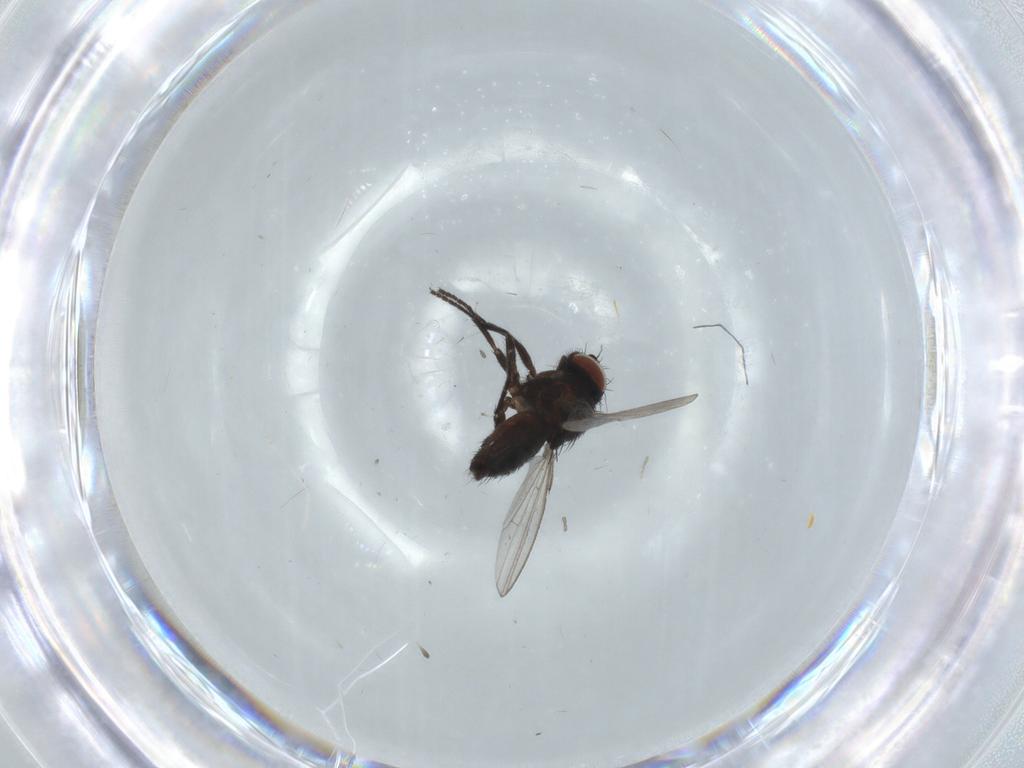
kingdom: Animalia
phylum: Arthropoda
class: Insecta
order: Diptera
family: Milichiidae
